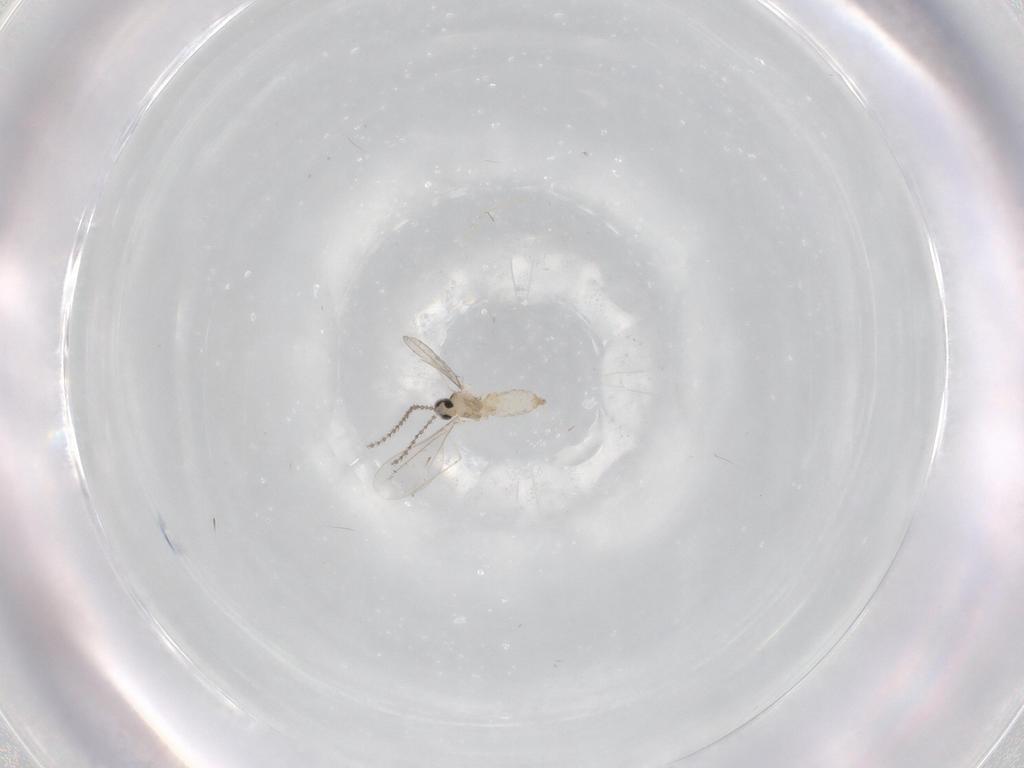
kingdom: Animalia
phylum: Arthropoda
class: Insecta
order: Diptera
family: Cecidomyiidae
